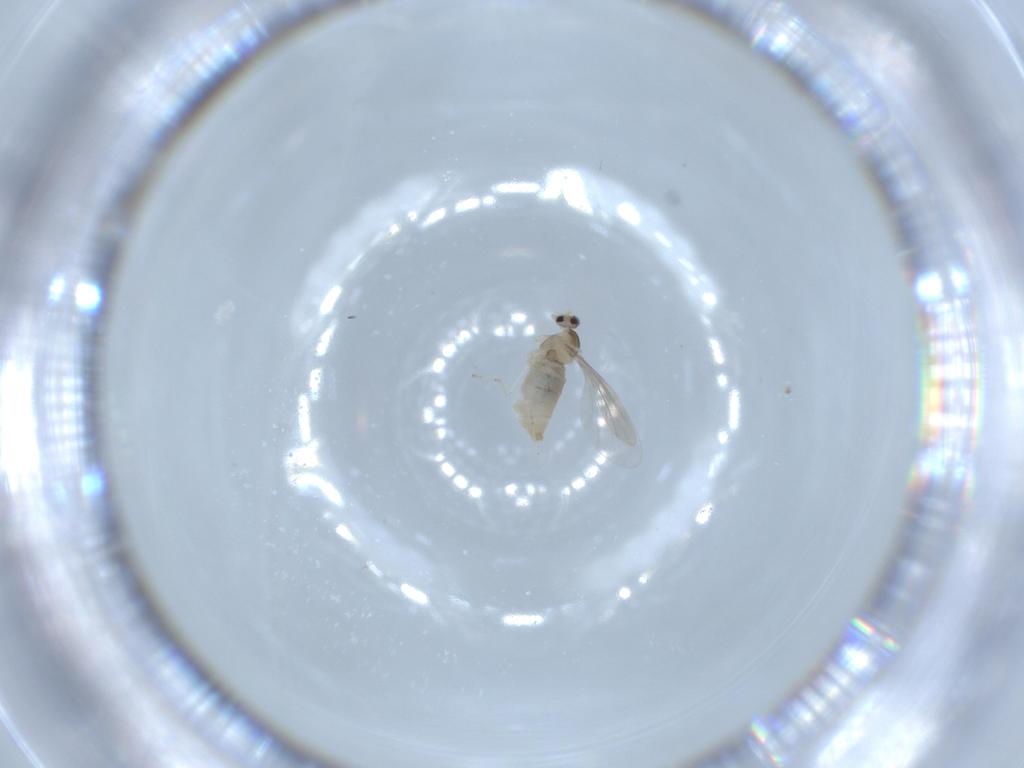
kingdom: Animalia
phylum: Arthropoda
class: Insecta
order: Diptera
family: Cecidomyiidae
